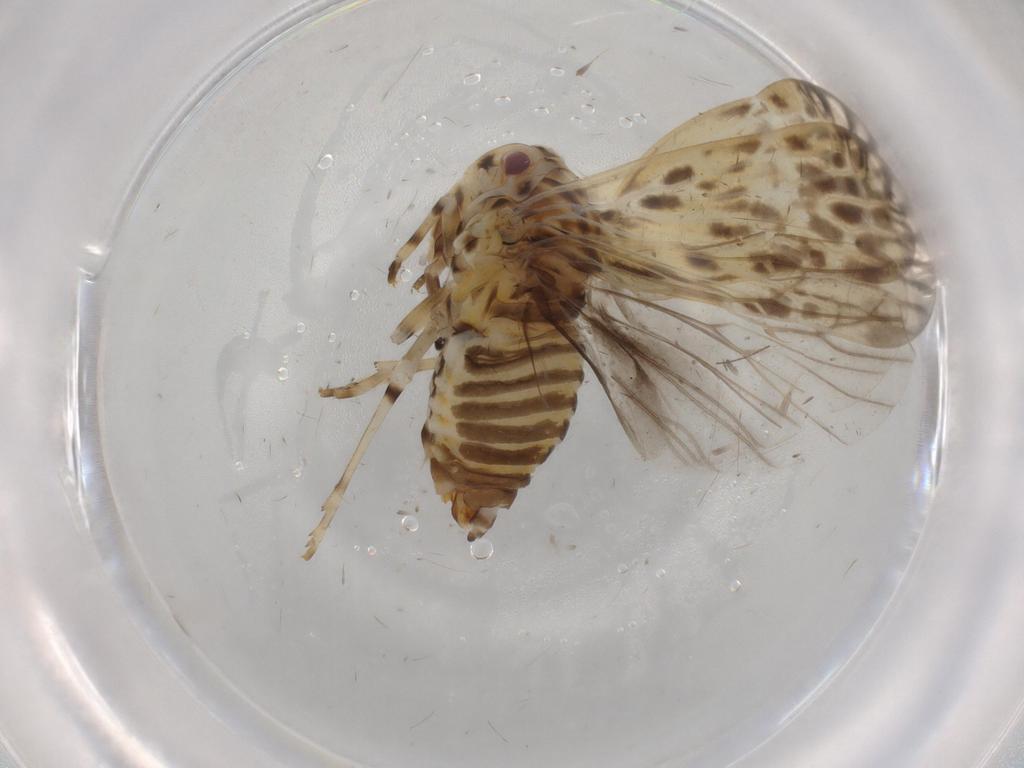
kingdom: Animalia
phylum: Arthropoda
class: Insecta
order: Hemiptera
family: Derbidae
